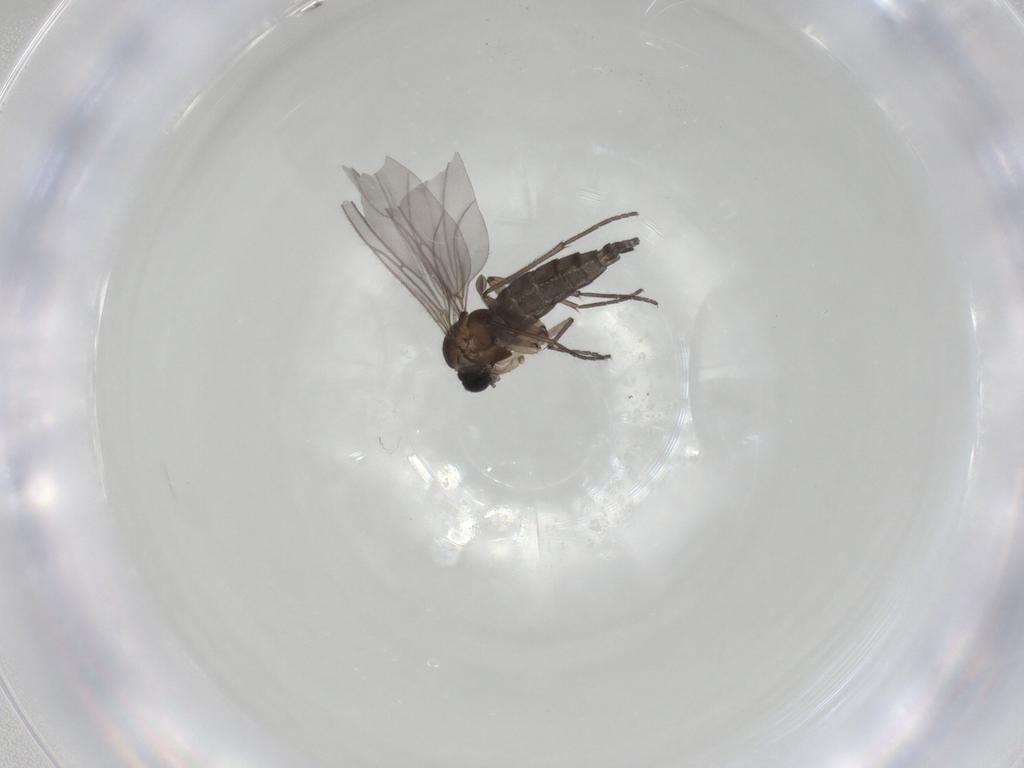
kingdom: Animalia
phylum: Arthropoda
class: Insecta
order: Diptera
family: Sciaridae
